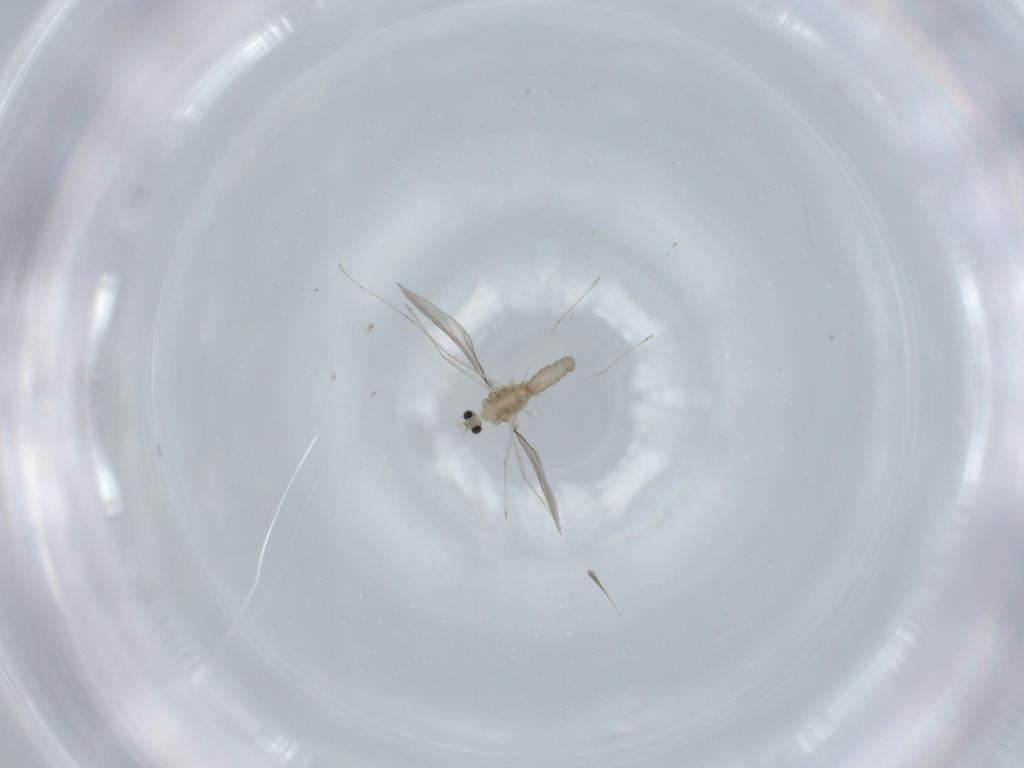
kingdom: Animalia
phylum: Arthropoda
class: Insecta
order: Diptera
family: Cecidomyiidae
